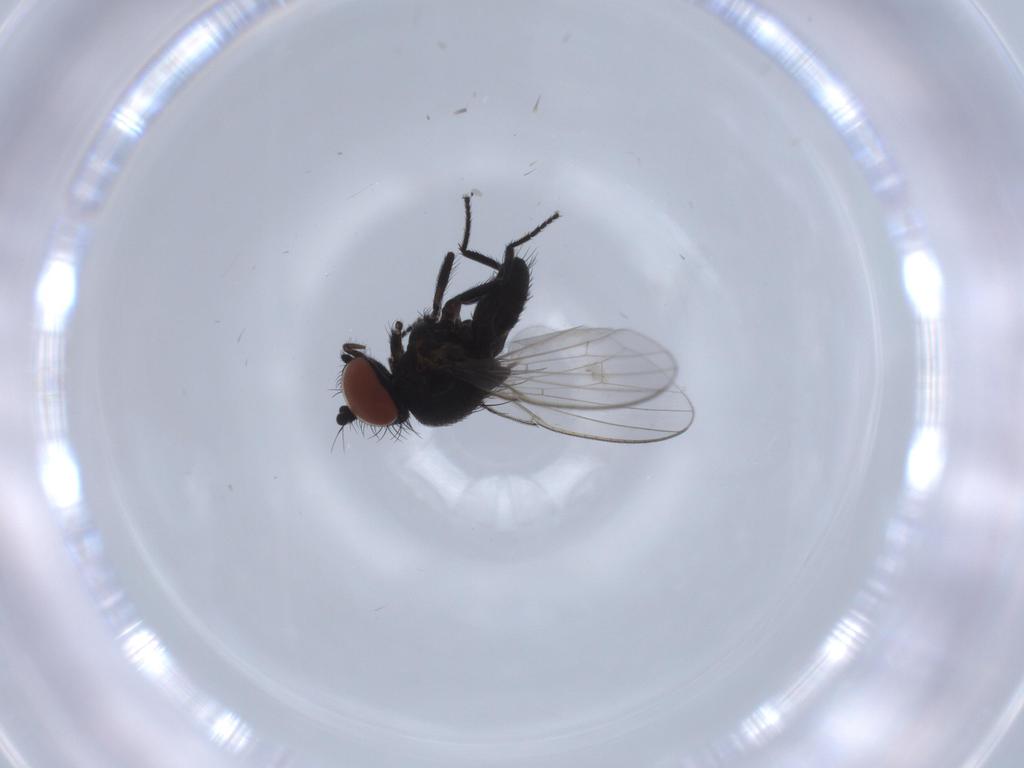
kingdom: Animalia
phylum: Arthropoda
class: Insecta
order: Diptera
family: Milichiidae
